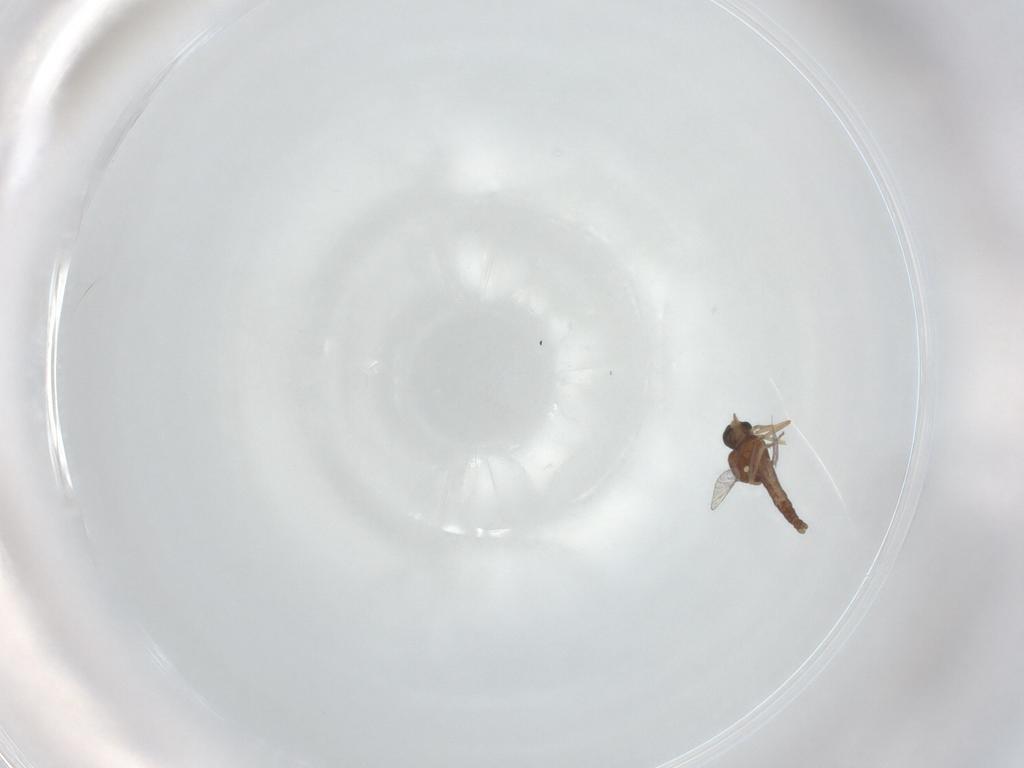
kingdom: Animalia
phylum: Arthropoda
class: Insecta
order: Diptera
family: Ceratopogonidae
